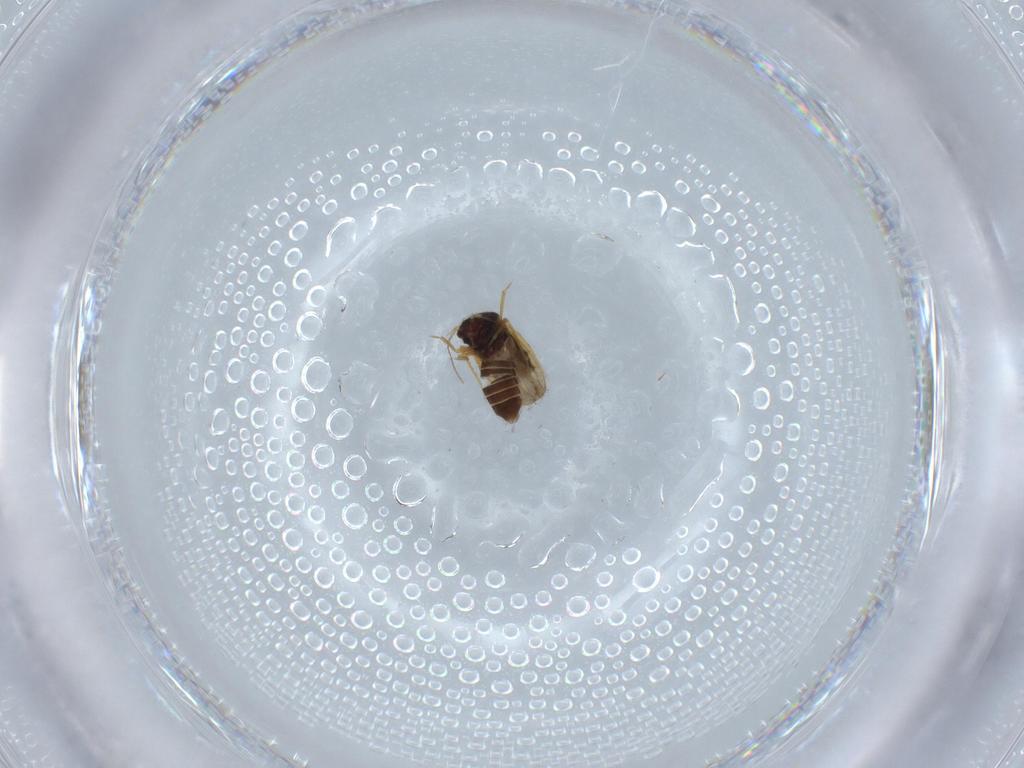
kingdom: Animalia
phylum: Arthropoda
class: Insecta
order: Hemiptera
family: Schizopteridae
